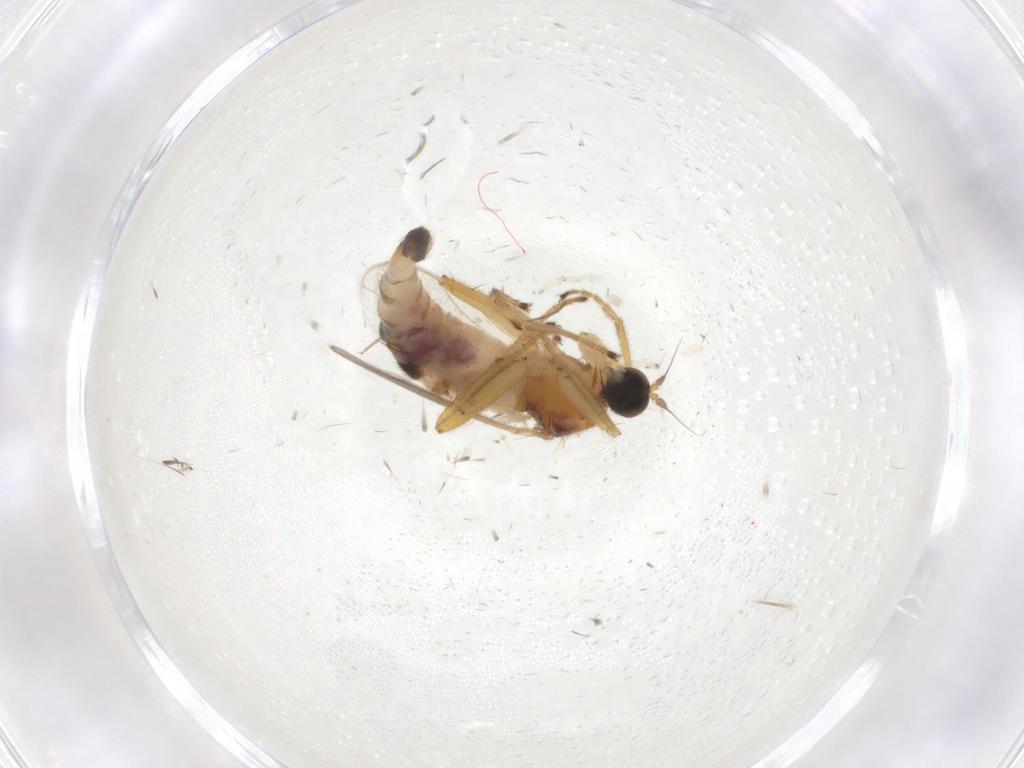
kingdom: Animalia
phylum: Arthropoda
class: Insecta
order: Diptera
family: Hybotidae
